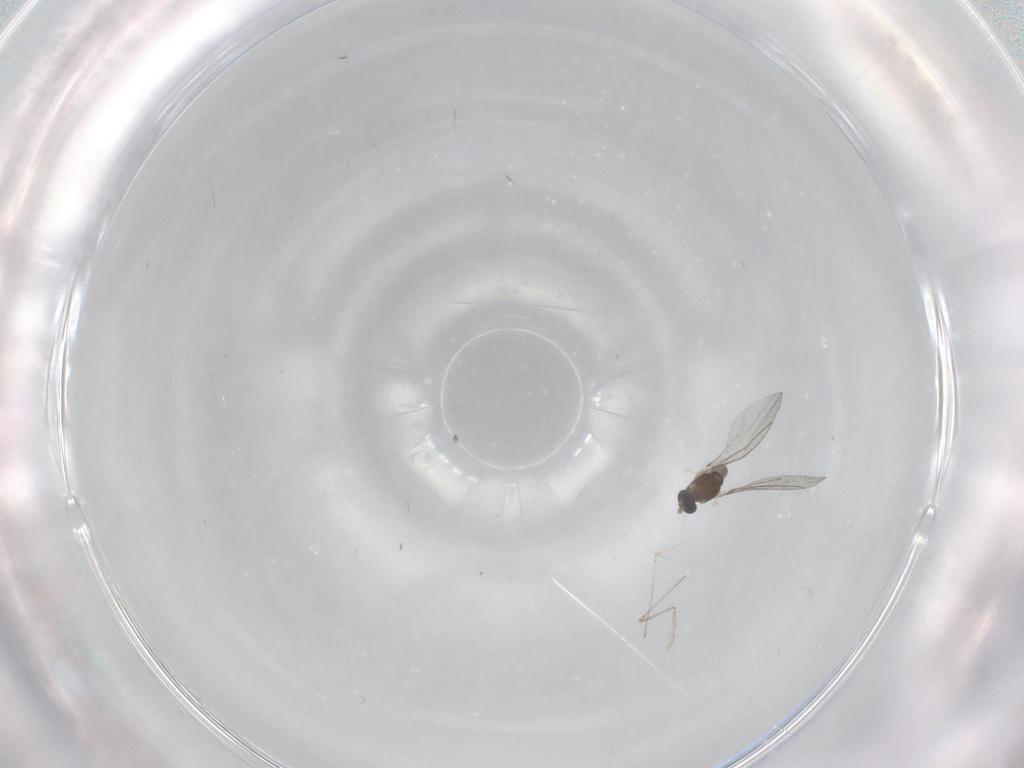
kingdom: Animalia
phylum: Arthropoda
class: Insecta
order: Diptera
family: Cecidomyiidae
